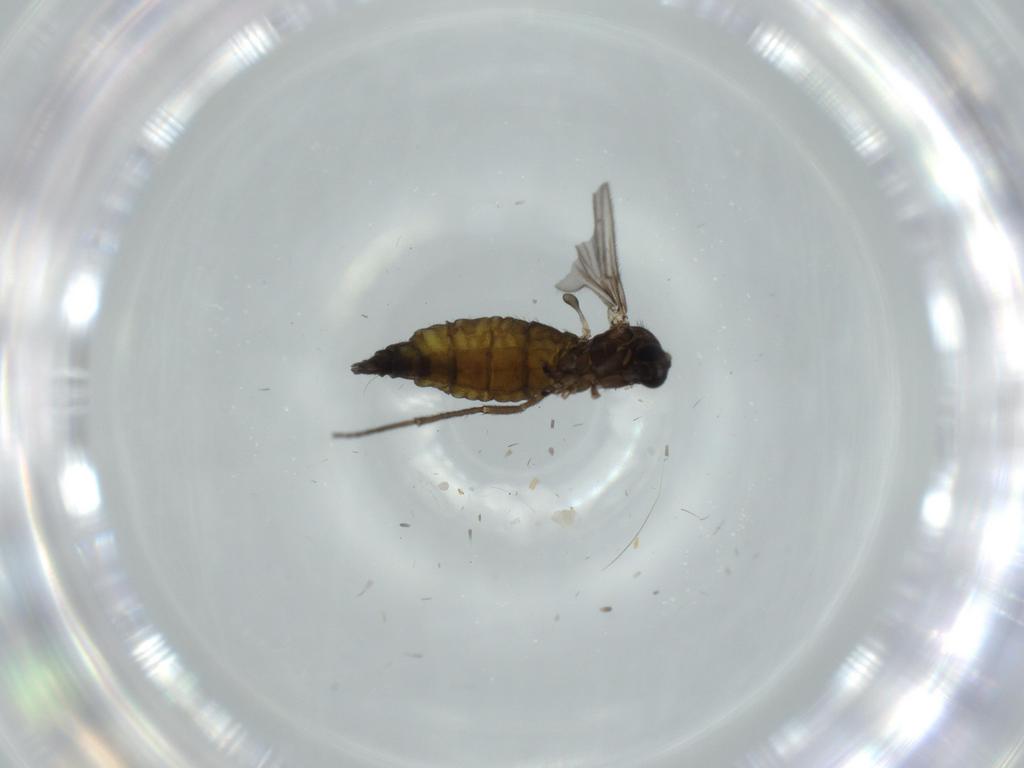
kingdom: Animalia
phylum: Arthropoda
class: Insecta
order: Diptera
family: Sciaridae
